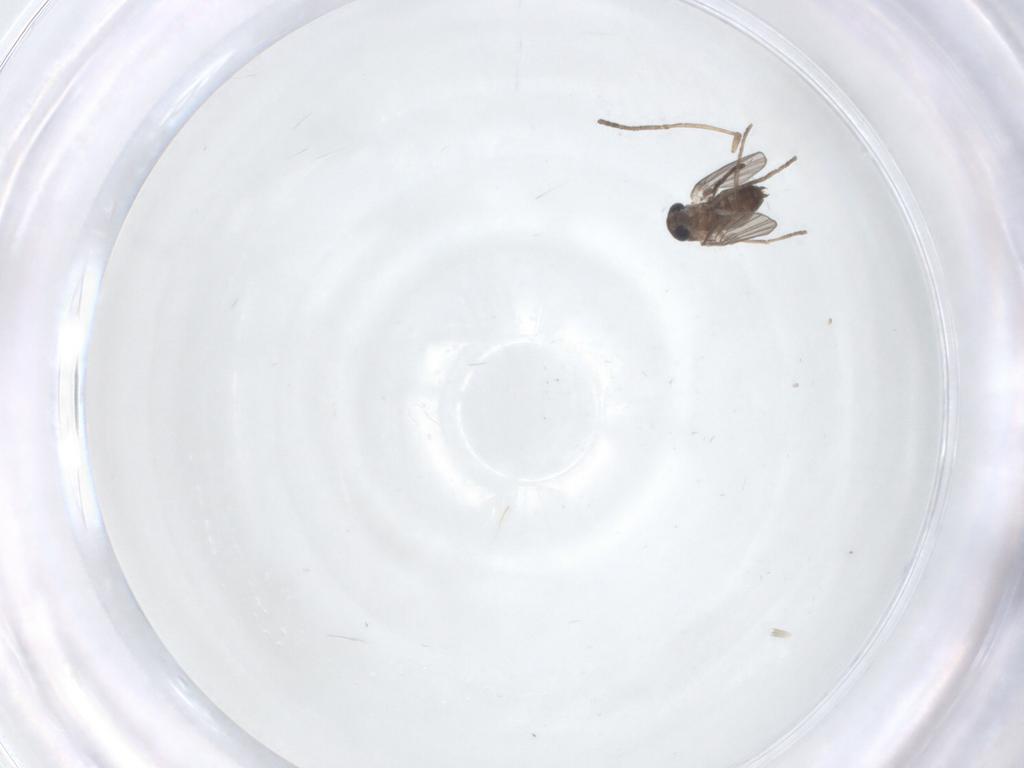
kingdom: Animalia
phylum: Arthropoda
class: Insecta
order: Diptera
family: Psychodidae
